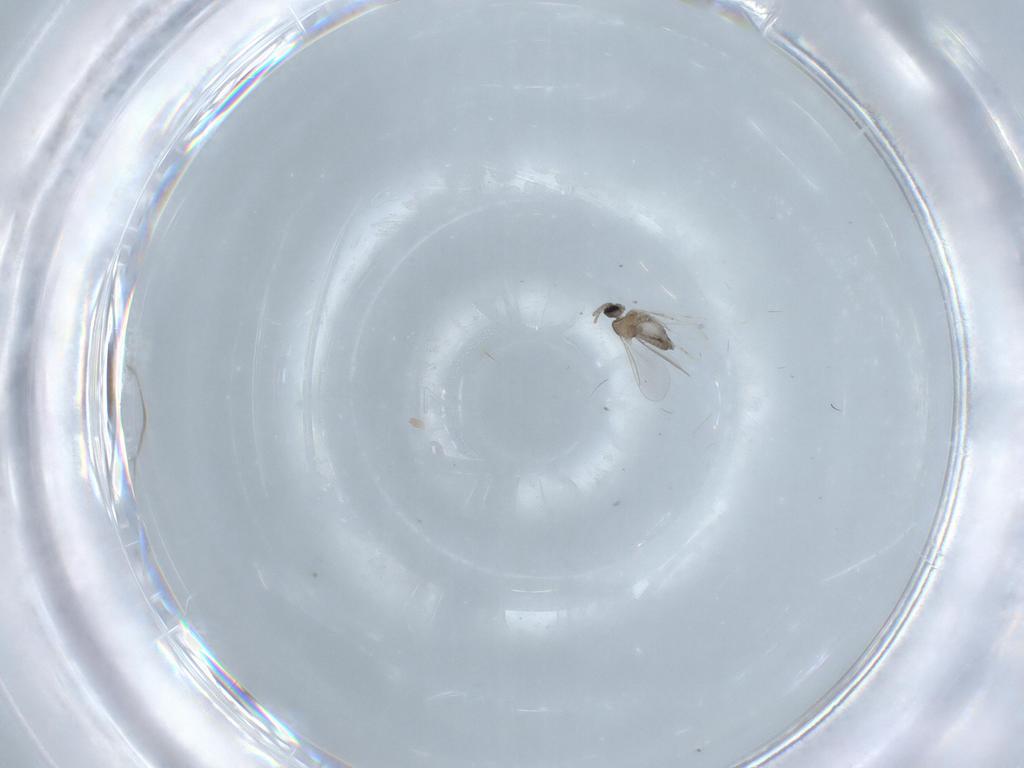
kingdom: Animalia
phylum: Arthropoda
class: Insecta
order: Diptera
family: Cecidomyiidae
